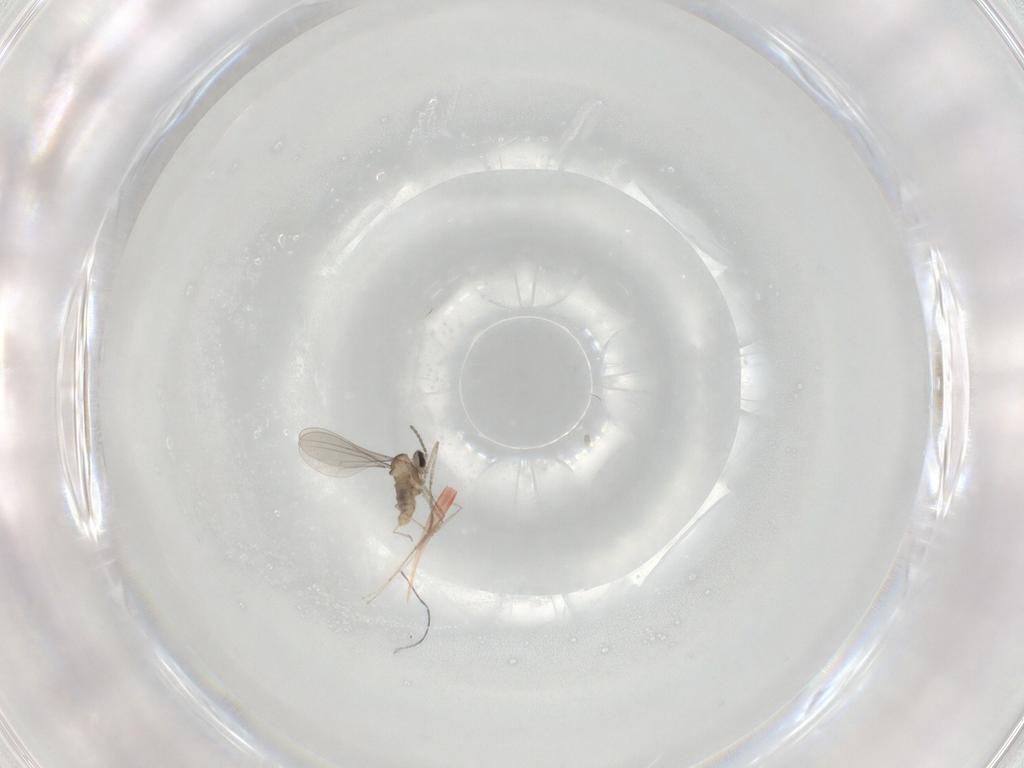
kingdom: Animalia
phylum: Arthropoda
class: Insecta
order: Diptera
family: Cecidomyiidae
